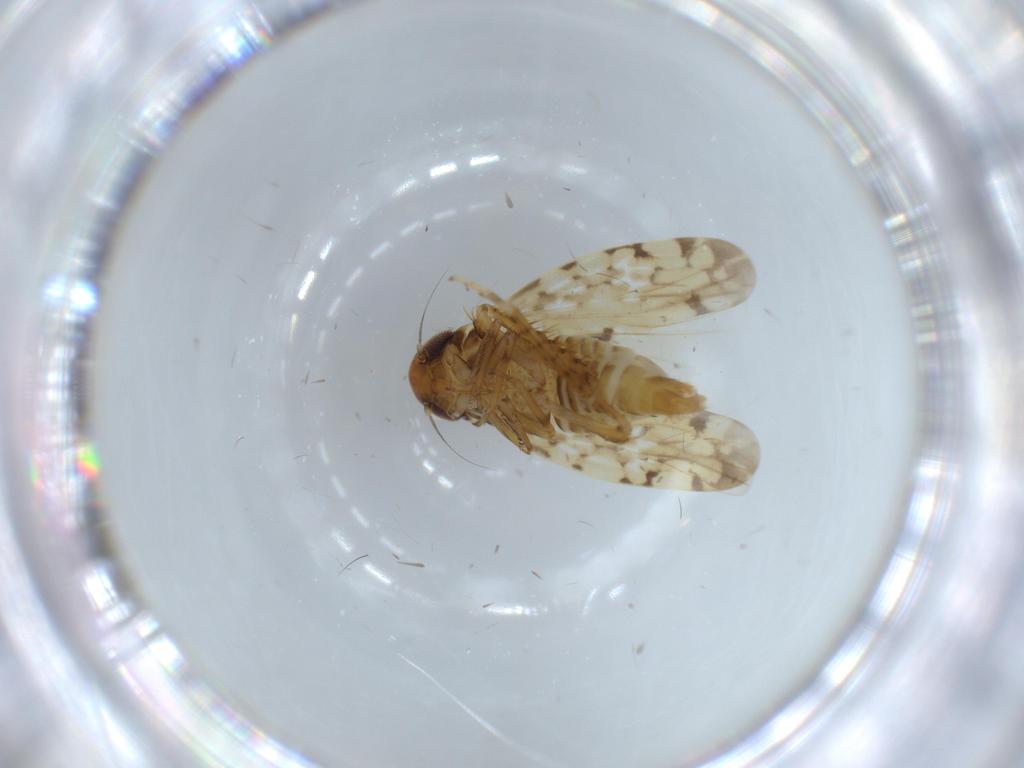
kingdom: Animalia
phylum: Arthropoda
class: Insecta
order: Hemiptera
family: Cicadellidae
